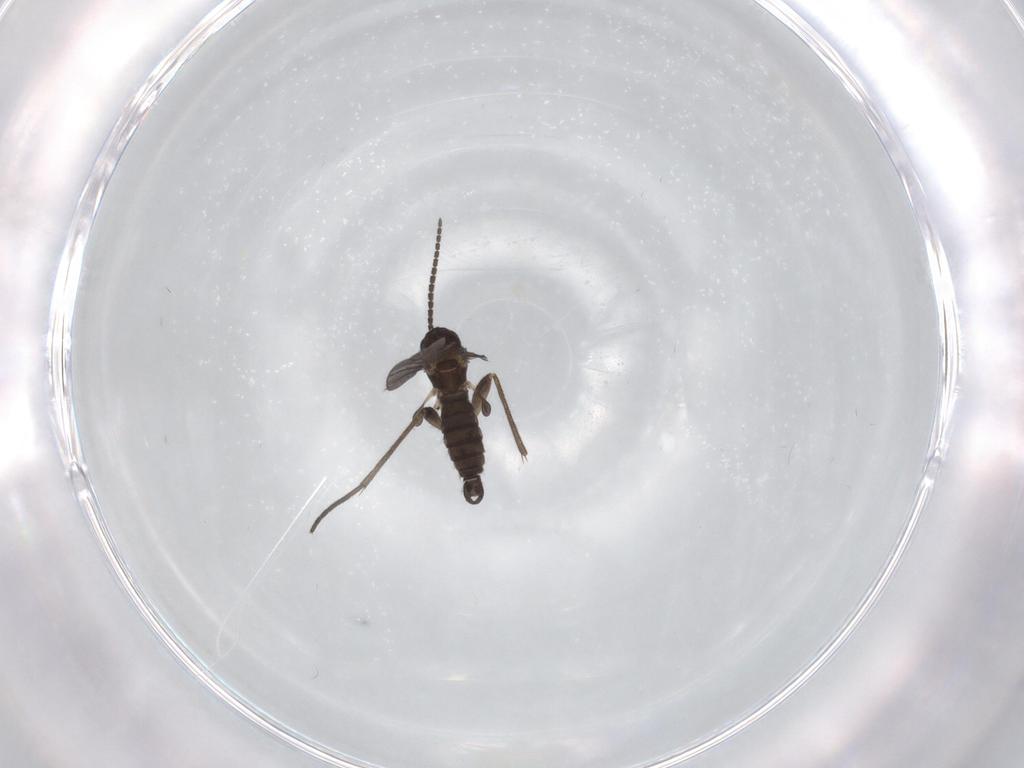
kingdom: Animalia
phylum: Arthropoda
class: Insecta
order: Diptera
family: Sciaridae
